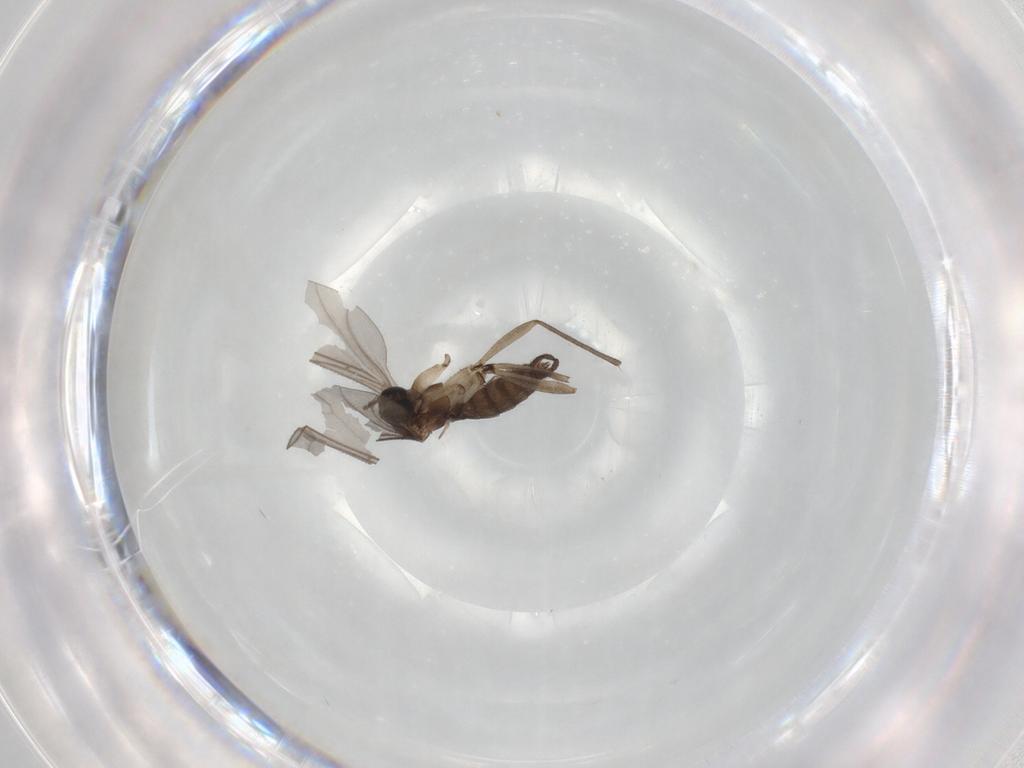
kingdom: Animalia
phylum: Arthropoda
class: Insecta
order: Diptera
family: Sciaridae
